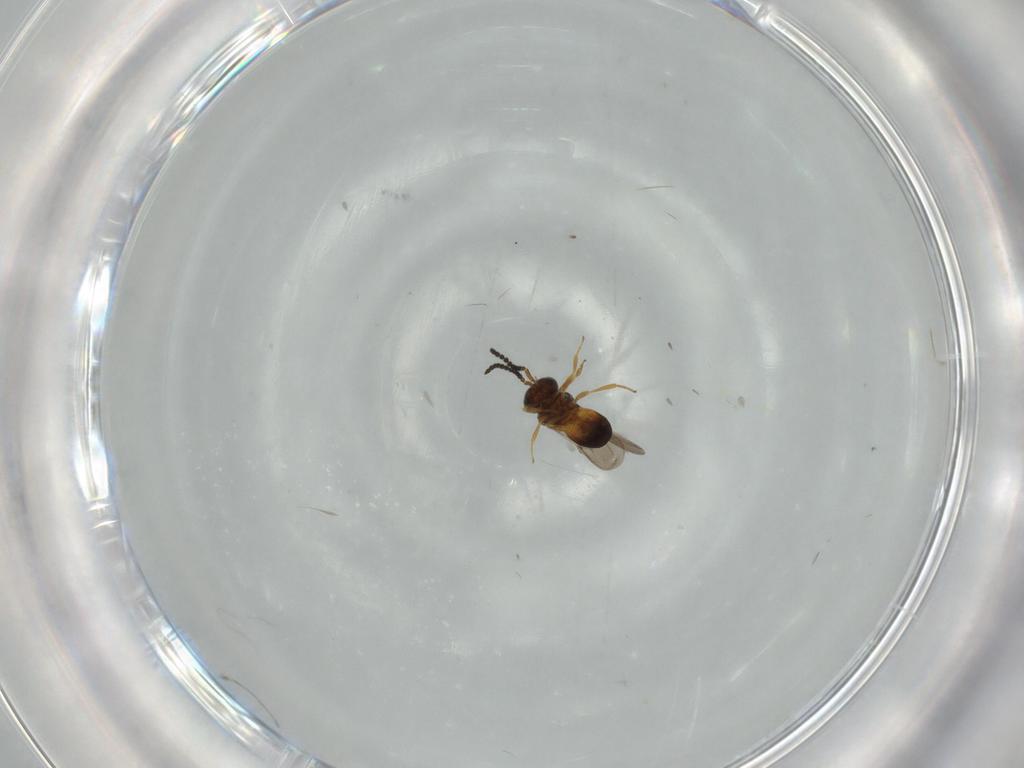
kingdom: Animalia
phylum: Arthropoda
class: Insecta
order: Hymenoptera
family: Scelionidae
